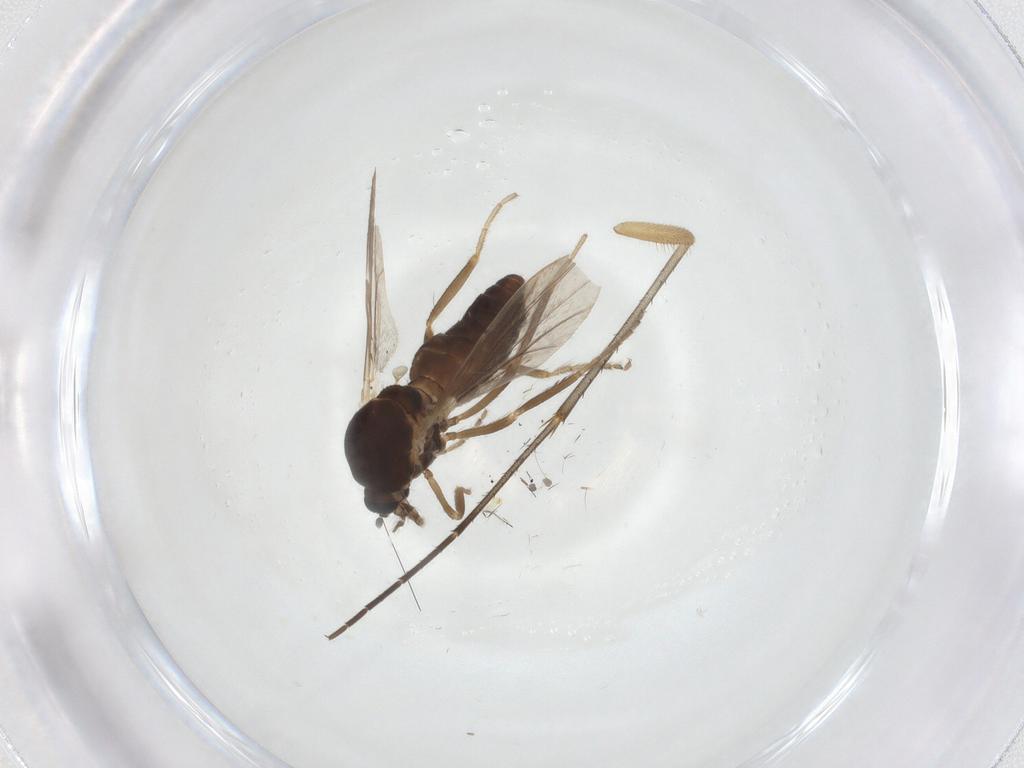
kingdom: Animalia
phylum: Arthropoda
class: Insecta
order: Diptera
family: Ceratopogonidae
